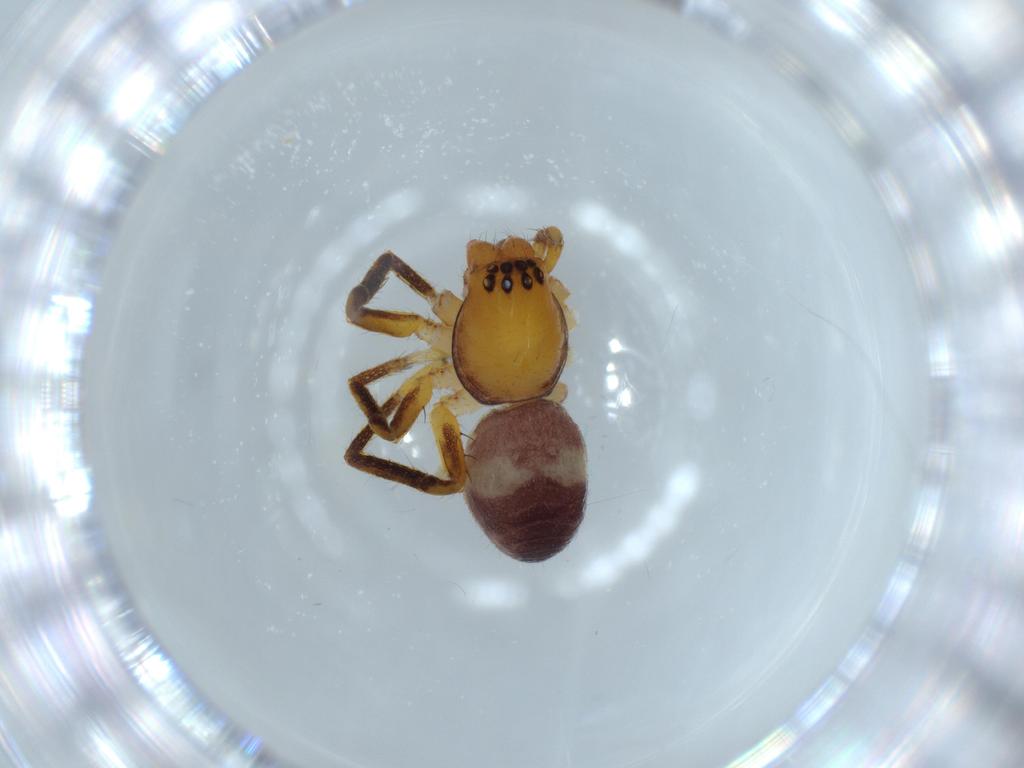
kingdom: Animalia
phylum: Arthropoda
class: Arachnida
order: Araneae
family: Corinnidae
